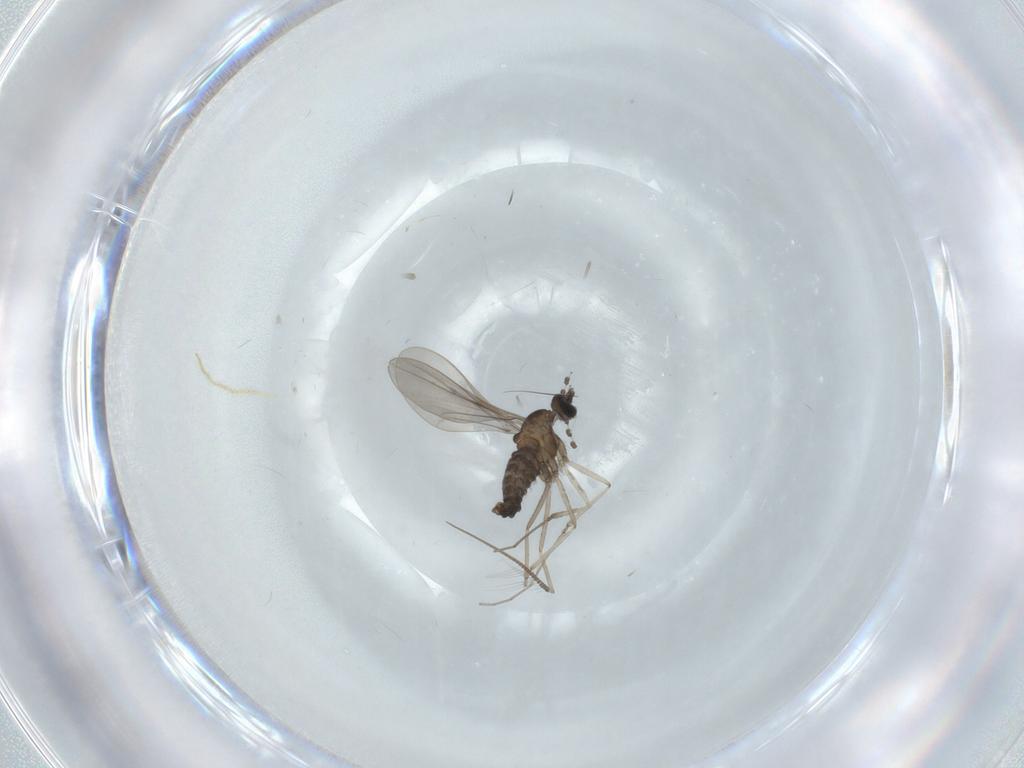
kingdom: Animalia
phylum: Arthropoda
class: Insecta
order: Diptera
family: Cecidomyiidae
